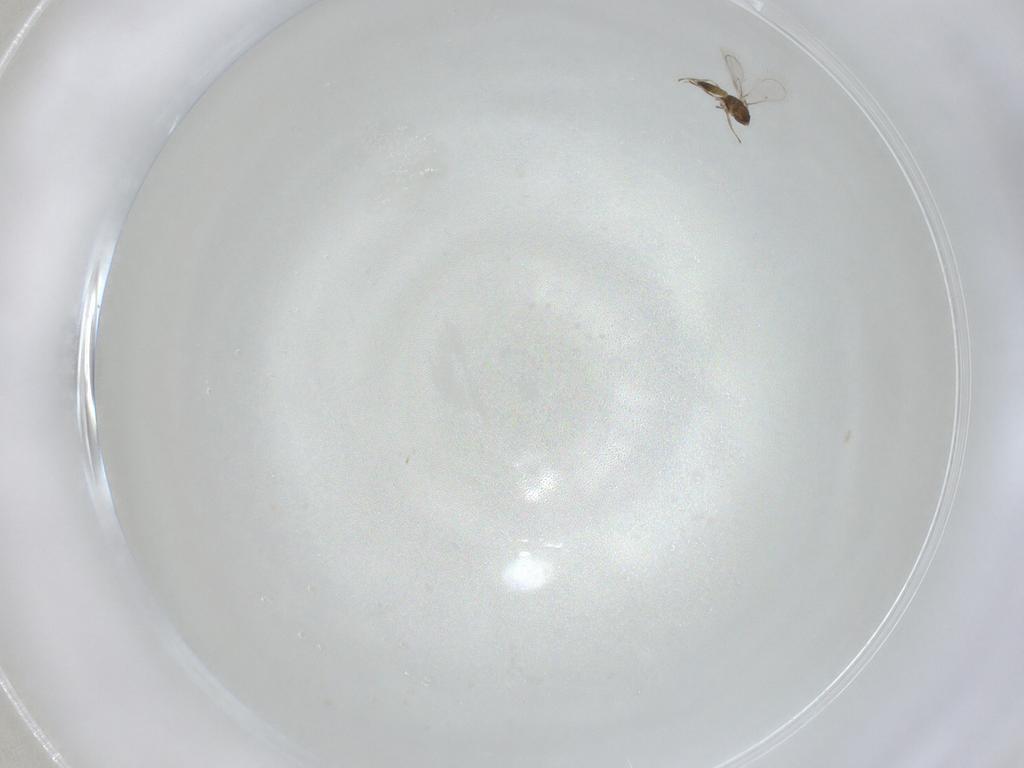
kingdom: Animalia
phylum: Arthropoda
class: Insecta
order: Hymenoptera
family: Eulophidae
